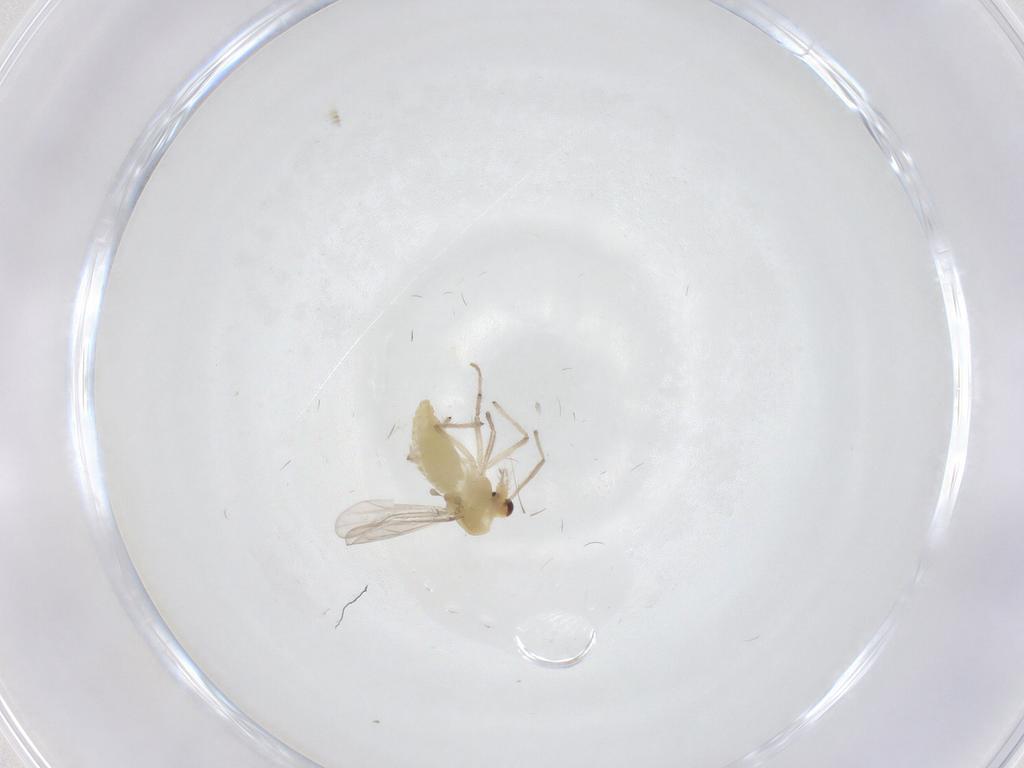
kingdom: Animalia
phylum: Arthropoda
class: Insecta
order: Diptera
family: Chironomidae
